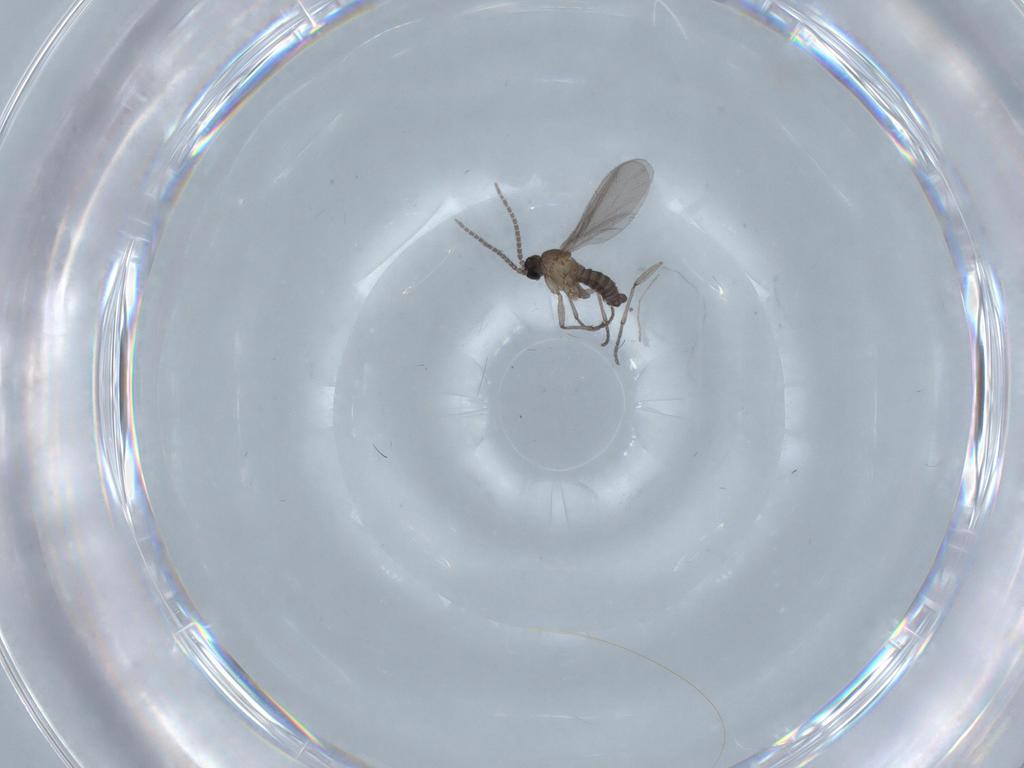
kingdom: Animalia
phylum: Arthropoda
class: Insecta
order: Diptera
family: Sciaridae
